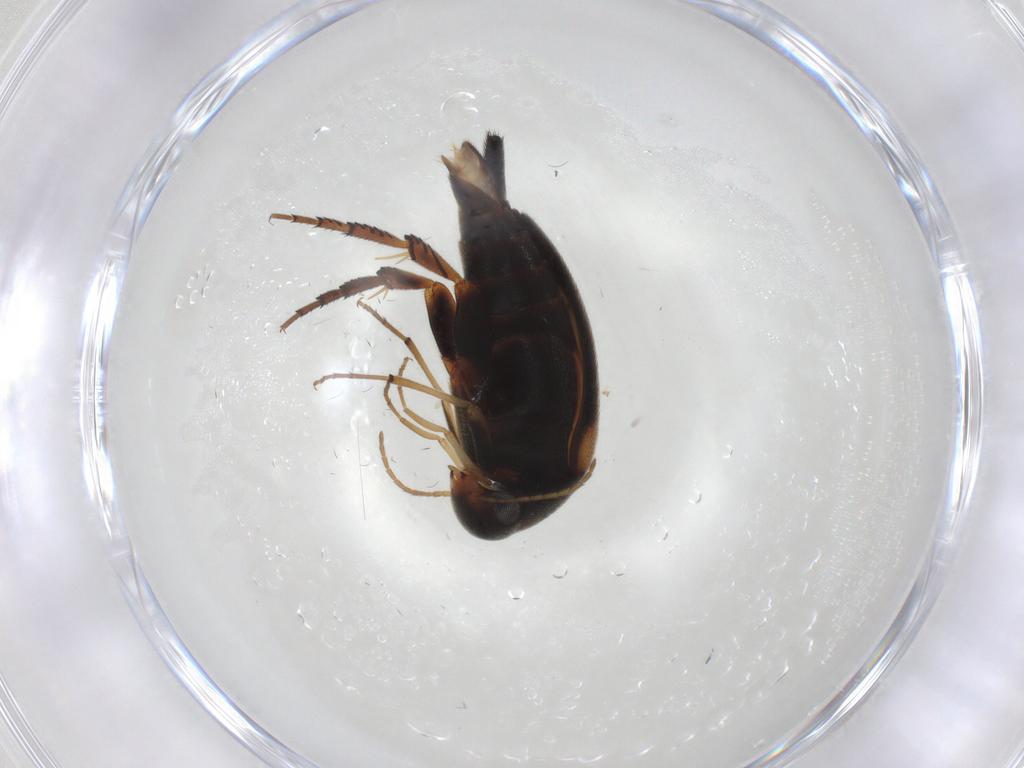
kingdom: Animalia
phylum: Arthropoda
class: Insecta
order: Coleoptera
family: Mordellidae
